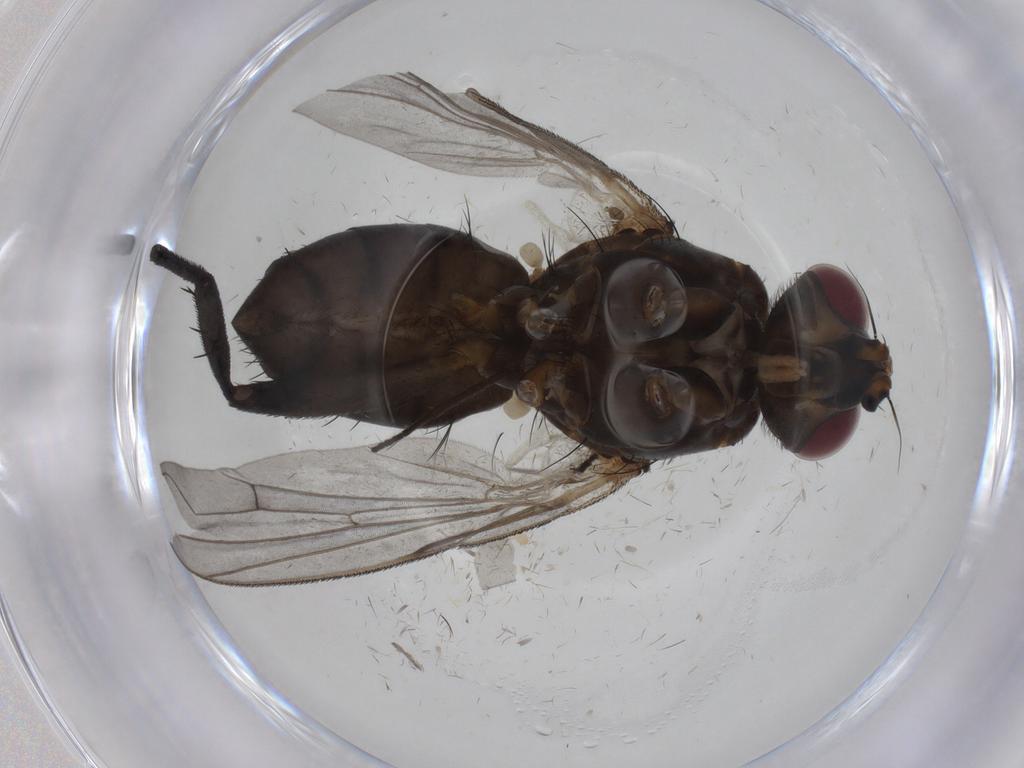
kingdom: Animalia
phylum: Arthropoda
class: Insecta
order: Diptera
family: Tachinidae
